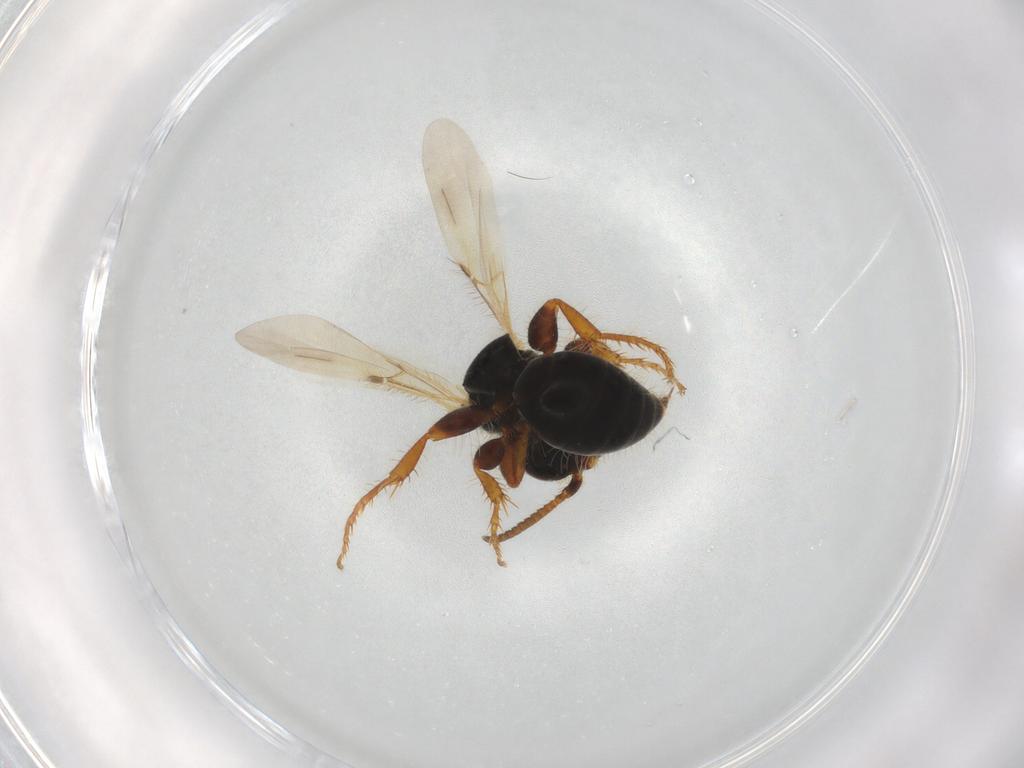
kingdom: Animalia
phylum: Arthropoda
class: Insecta
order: Hymenoptera
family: Bethylidae
